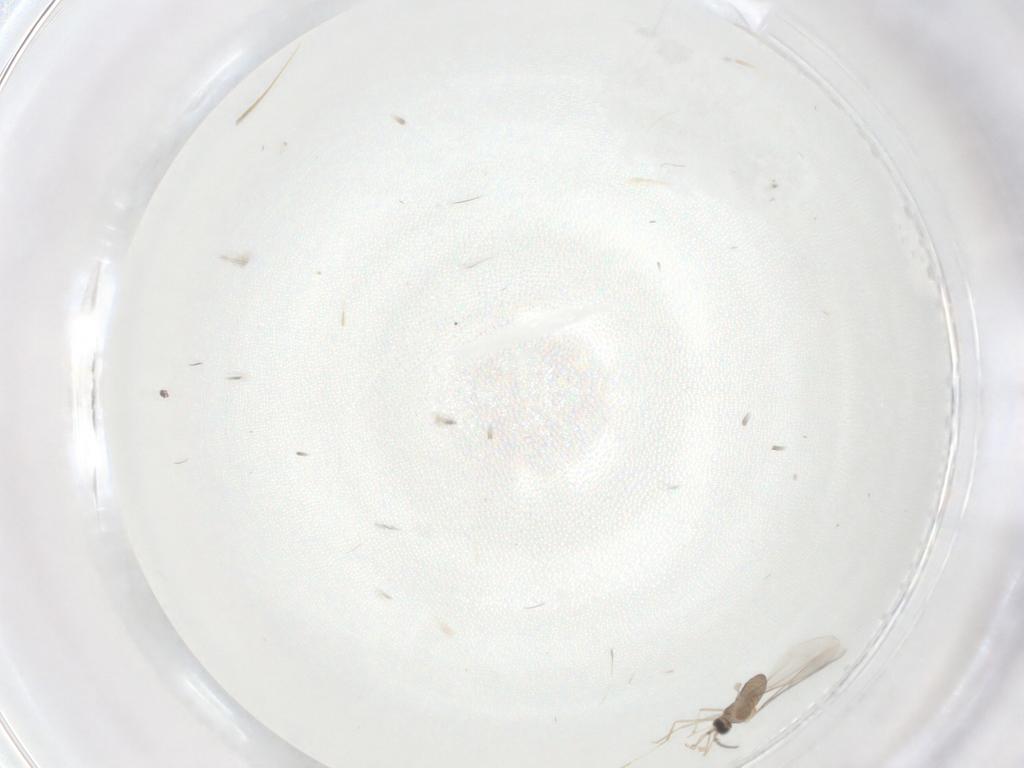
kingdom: Animalia
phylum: Arthropoda
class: Insecta
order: Diptera
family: Cecidomyiidae
